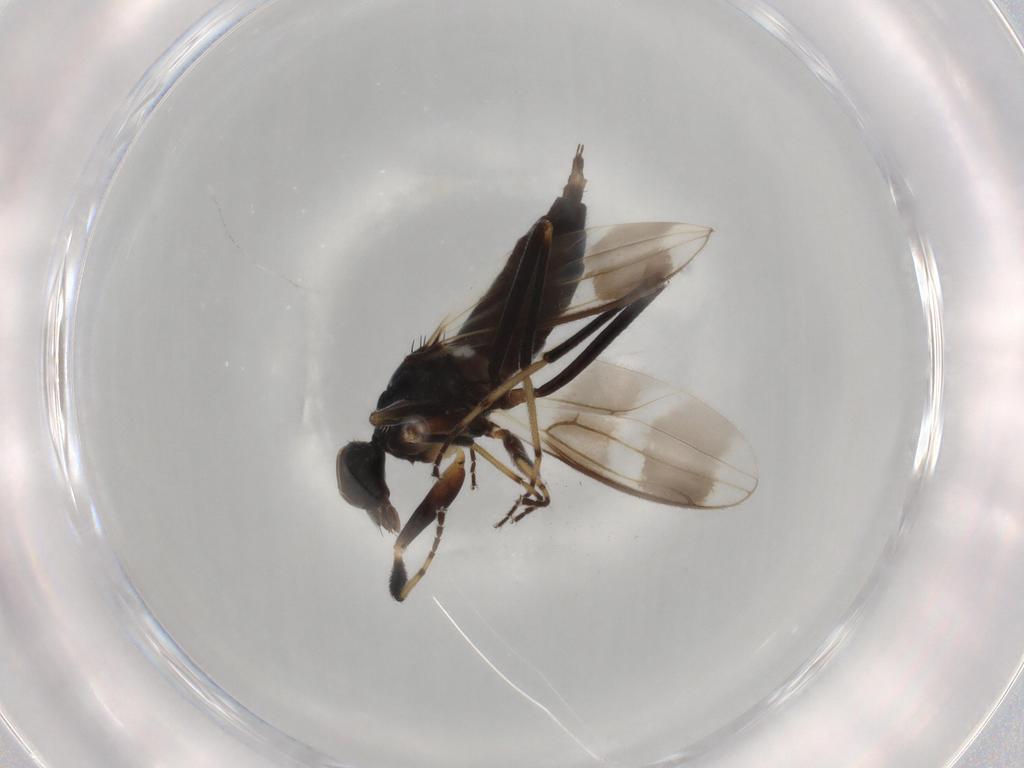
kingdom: Animalia
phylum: Arthropoda
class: Insecta
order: Diptera
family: Hybotidae
